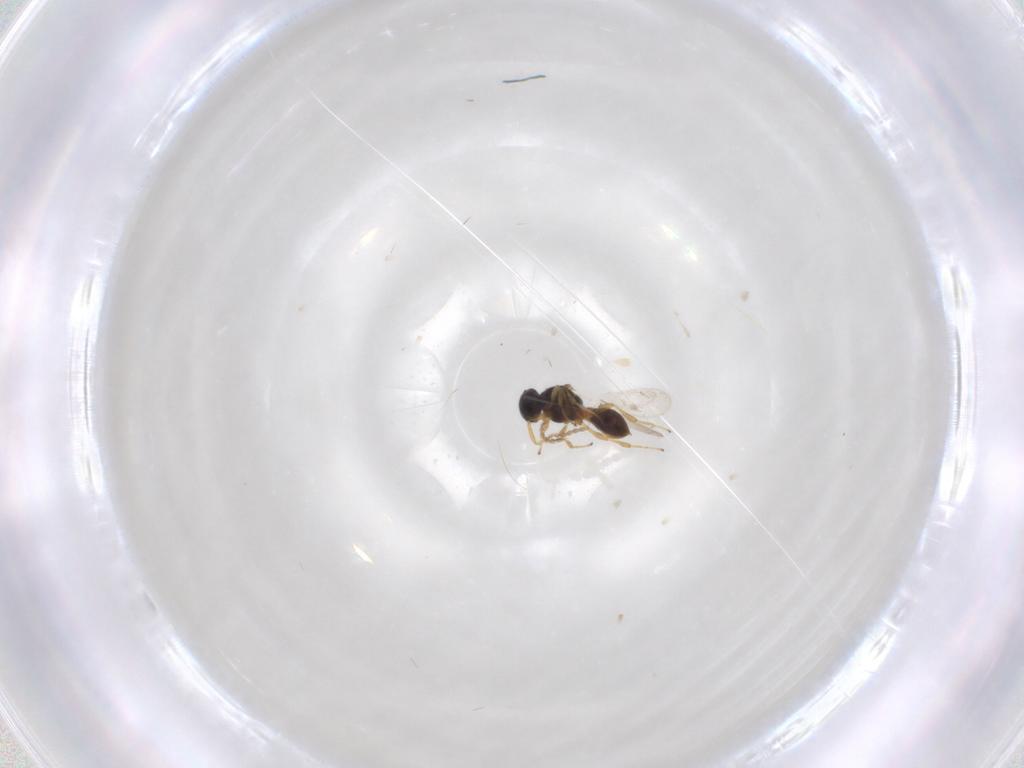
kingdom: Animalia
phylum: Arthropoda
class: Insecta
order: Hymenoptera
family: Platygastridae
